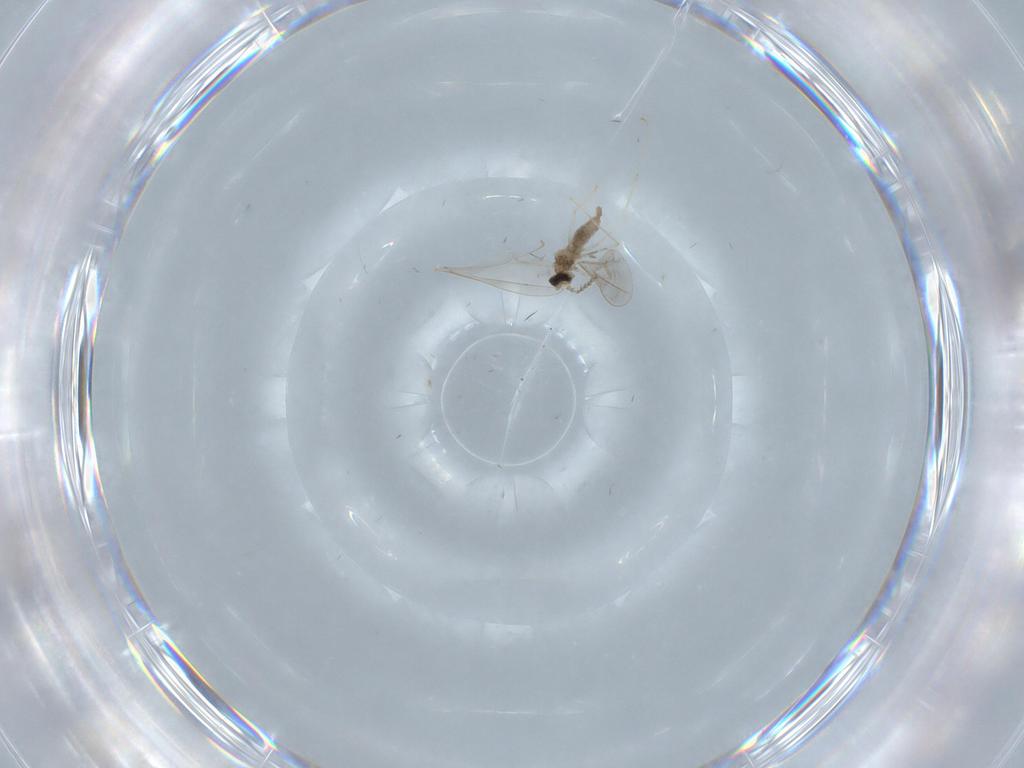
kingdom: Animalia
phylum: Arthropoda
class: Insecta
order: Diptera
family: Cecidomyiidae
